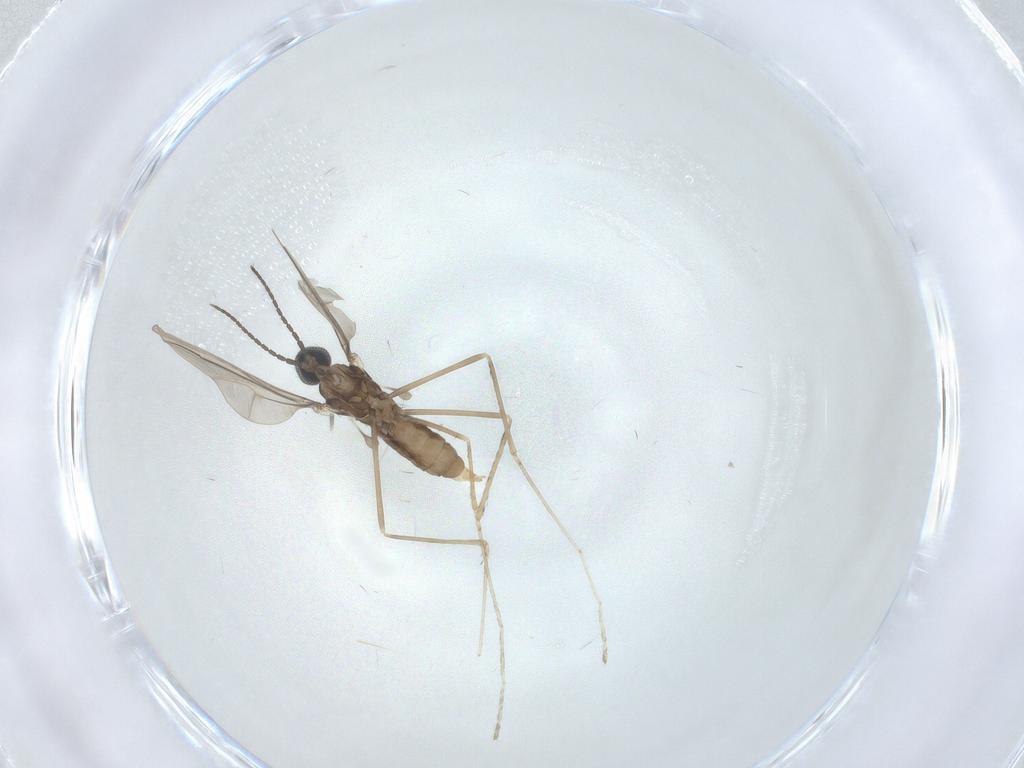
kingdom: Animalia
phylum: Arthropoda
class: Insecta
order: Diptera
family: Cecidomyiidae
